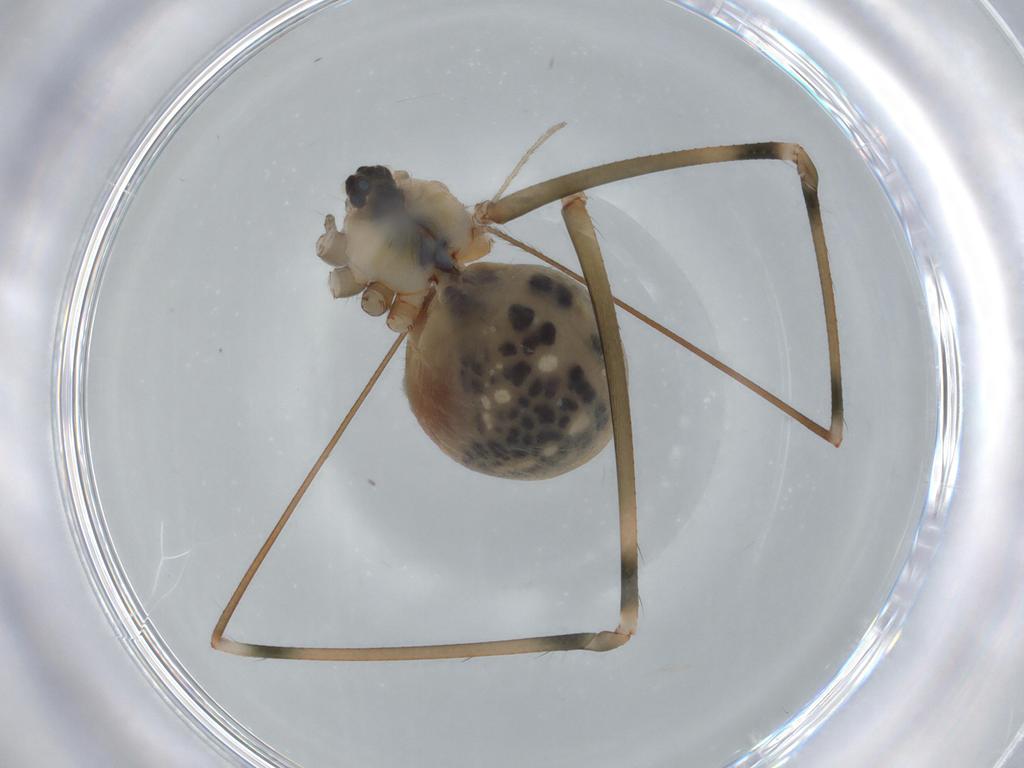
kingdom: Animalia
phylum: Arthropoda
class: Arachnida
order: Araneae
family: Pholcidae
